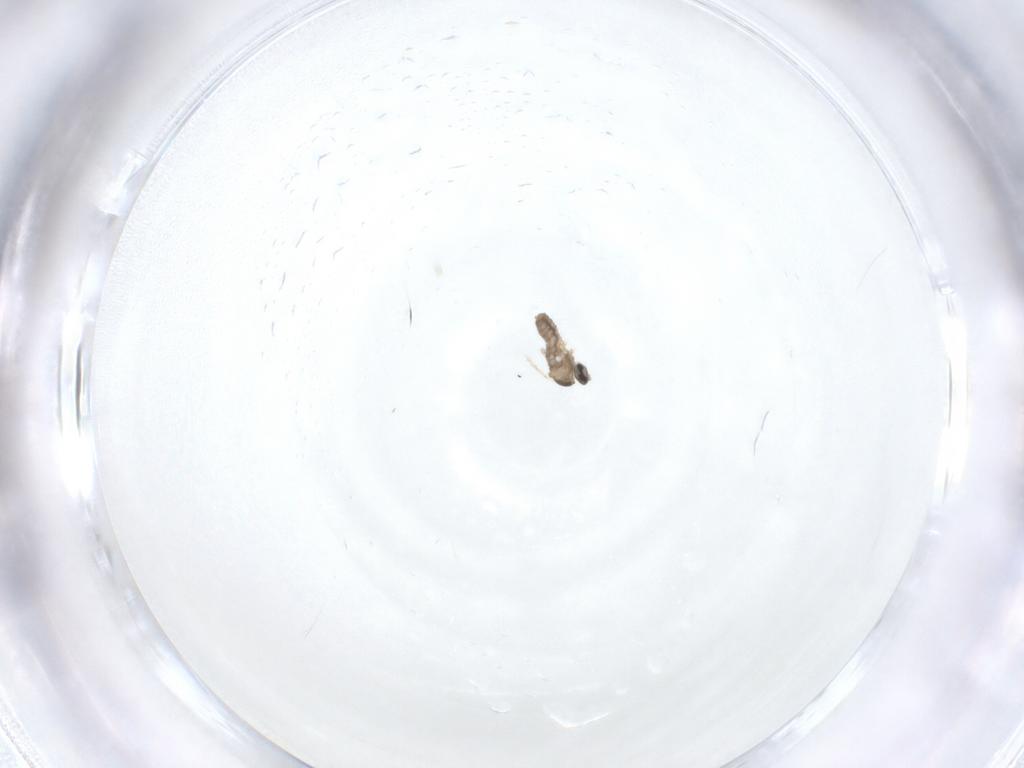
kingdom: Animalia
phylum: Arthropoda
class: Insecta
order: Diptera
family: Cecidomyiidae
